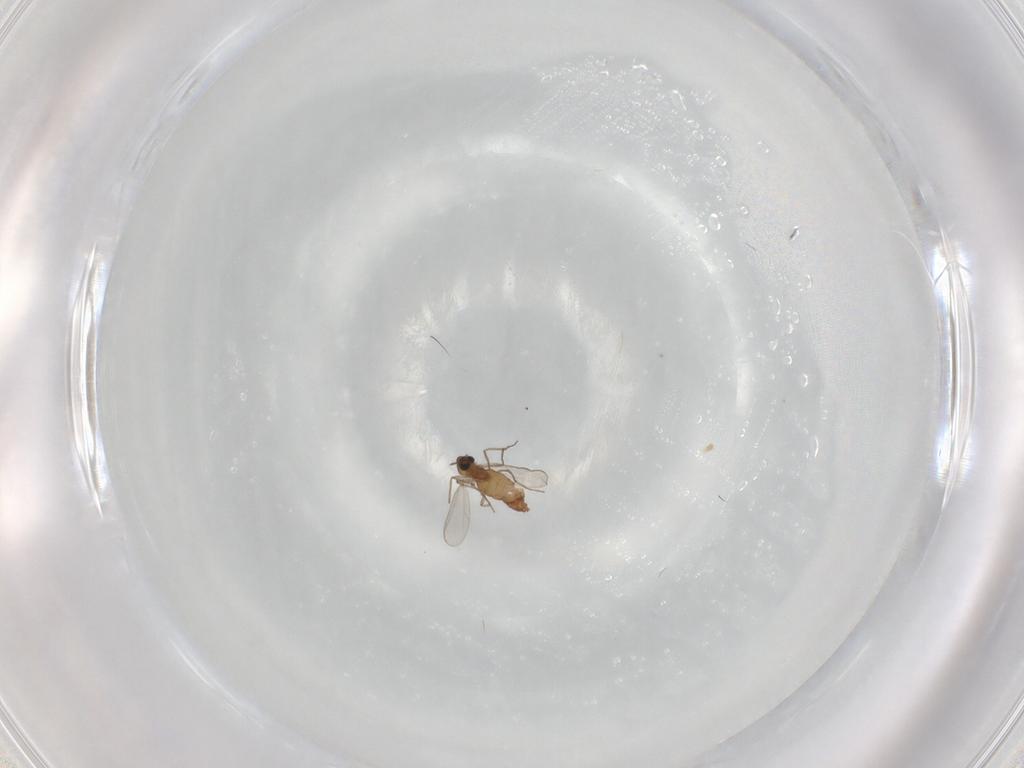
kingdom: Animalia
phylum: Arthropoda
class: Insecta
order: Diptera
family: Chironomidae
